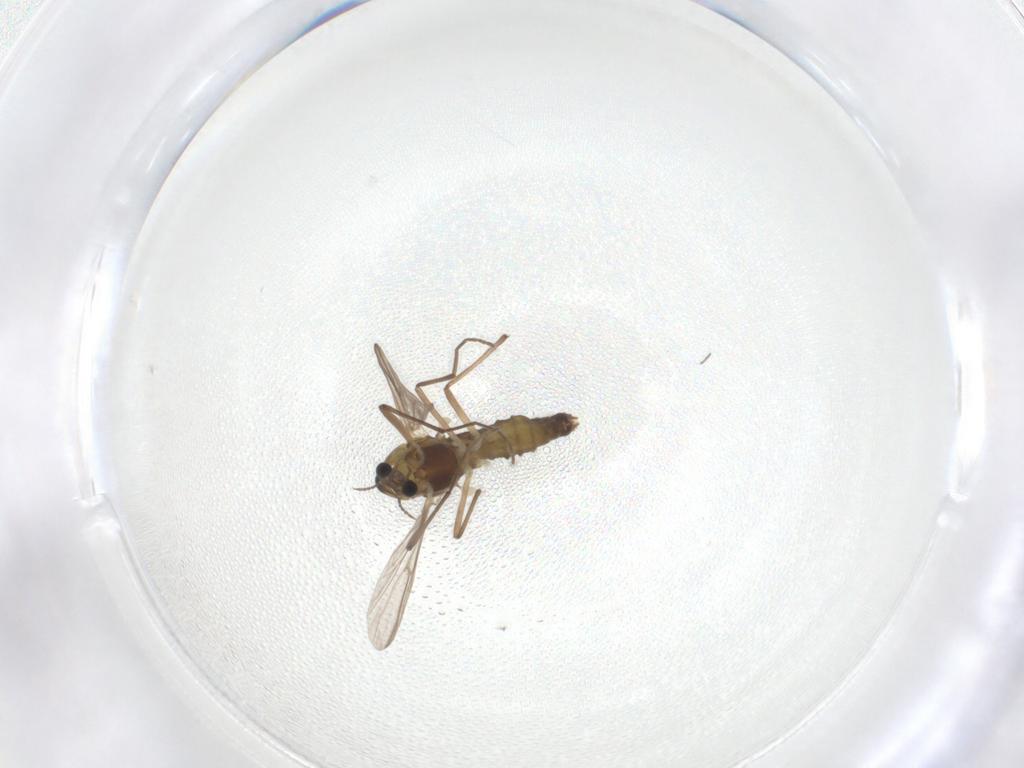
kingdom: Animalia
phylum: Arthropoda
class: Insecta
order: Diptera
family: Chironomidae
